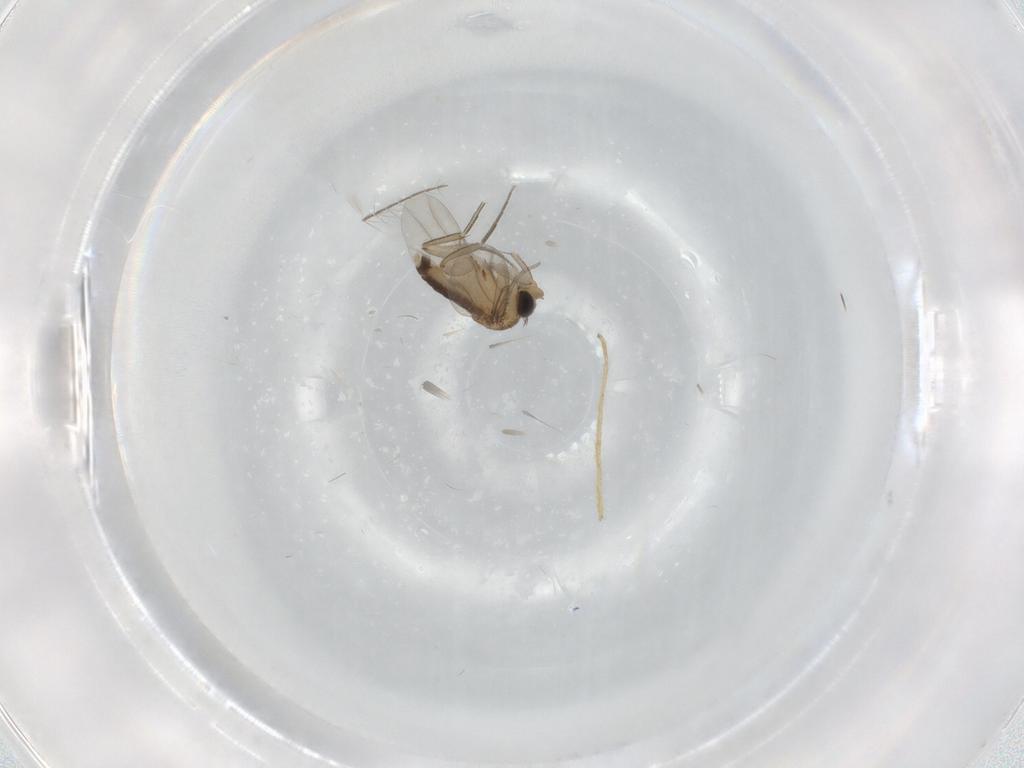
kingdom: Animalia
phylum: Arthropoda
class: Insecta
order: Diptera
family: Phoridae
